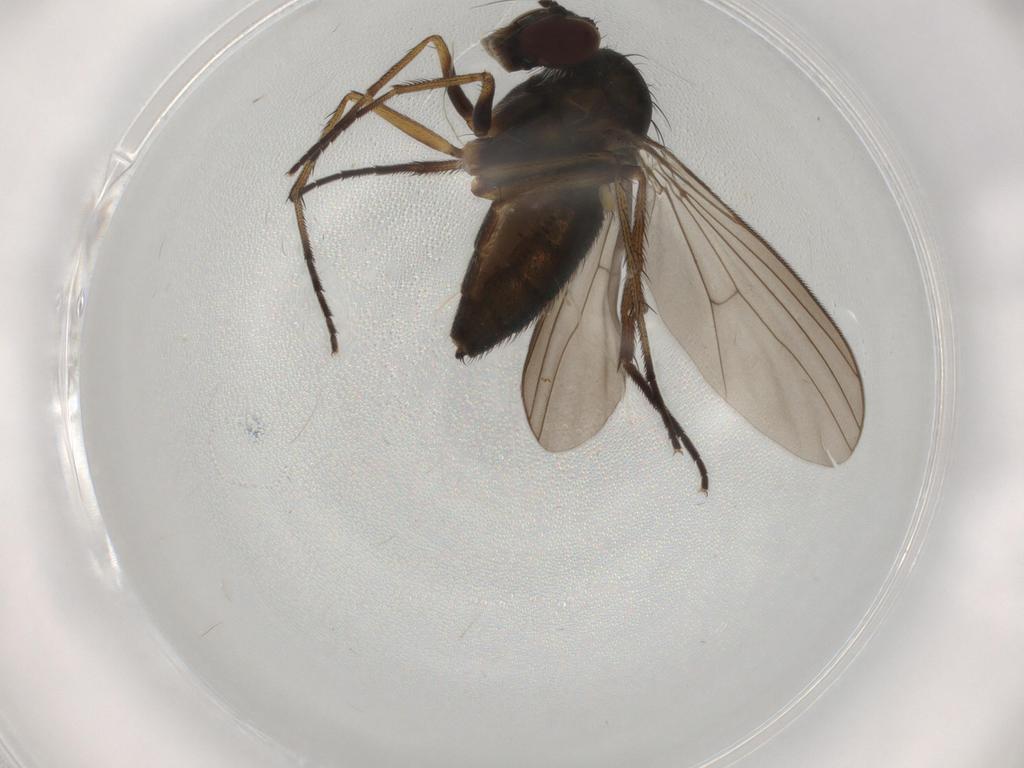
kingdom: Animalia
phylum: Arthropoda
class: Insecta
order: Diptera
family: Dolichopodidae
